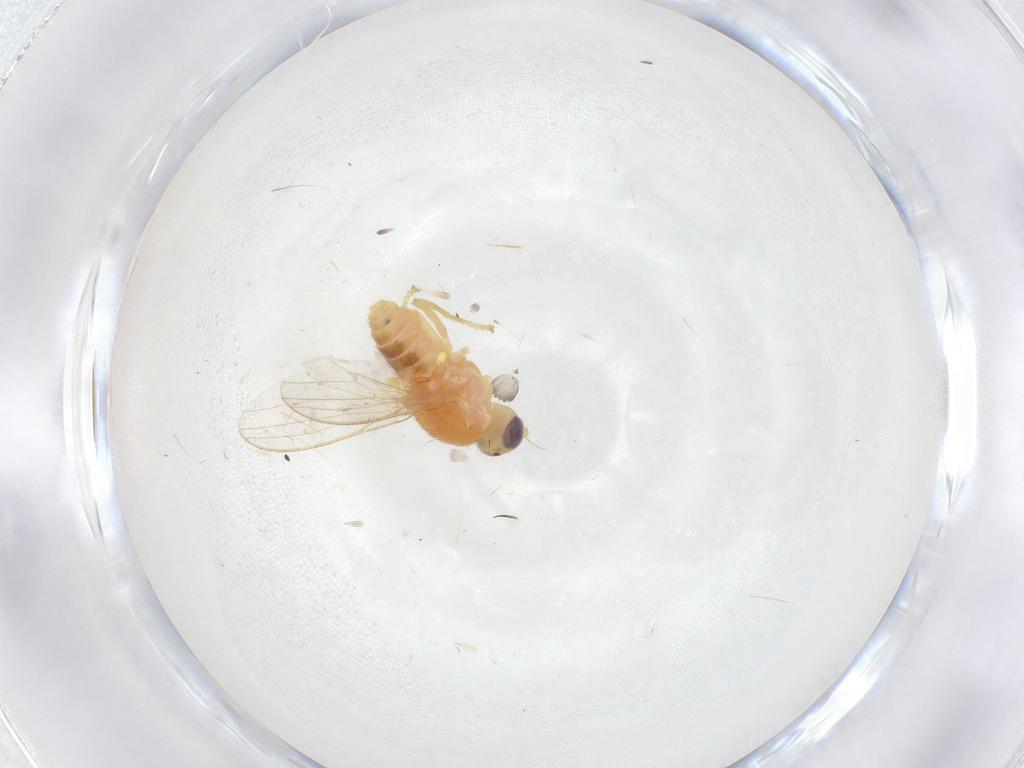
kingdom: Animalia
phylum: Arthropoda
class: Insecta
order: Diptera
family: Chyromyidae
